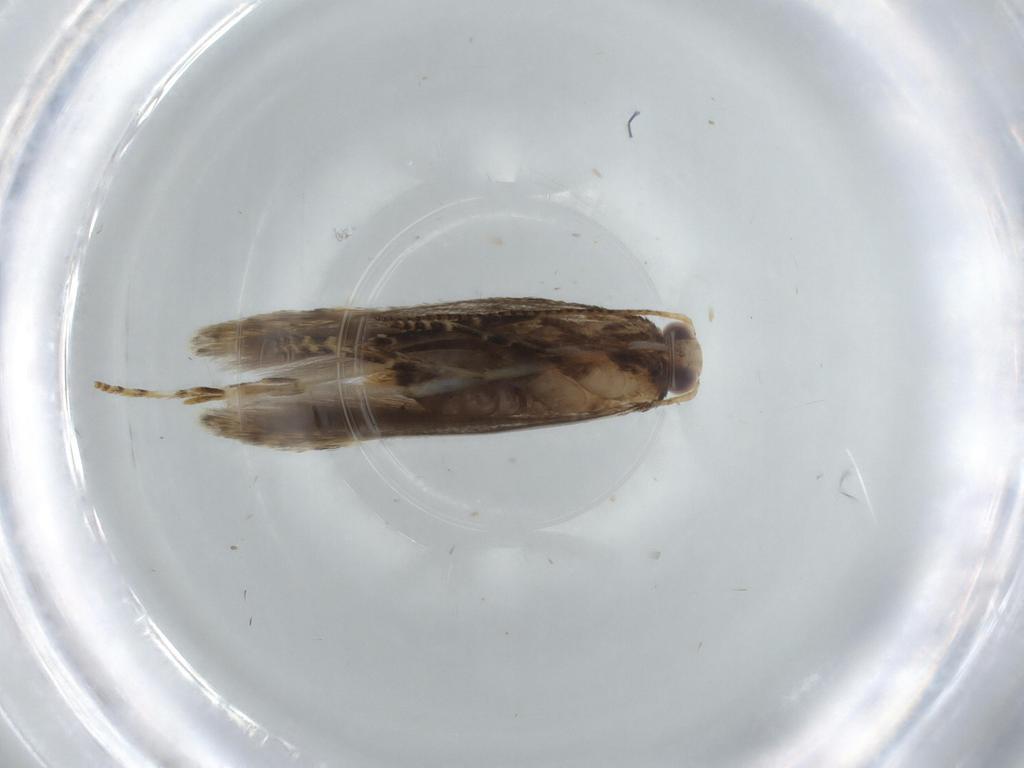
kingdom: Animalia
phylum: Arthropoda
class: Insecta
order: Lepidoptera
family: Elachistidae
